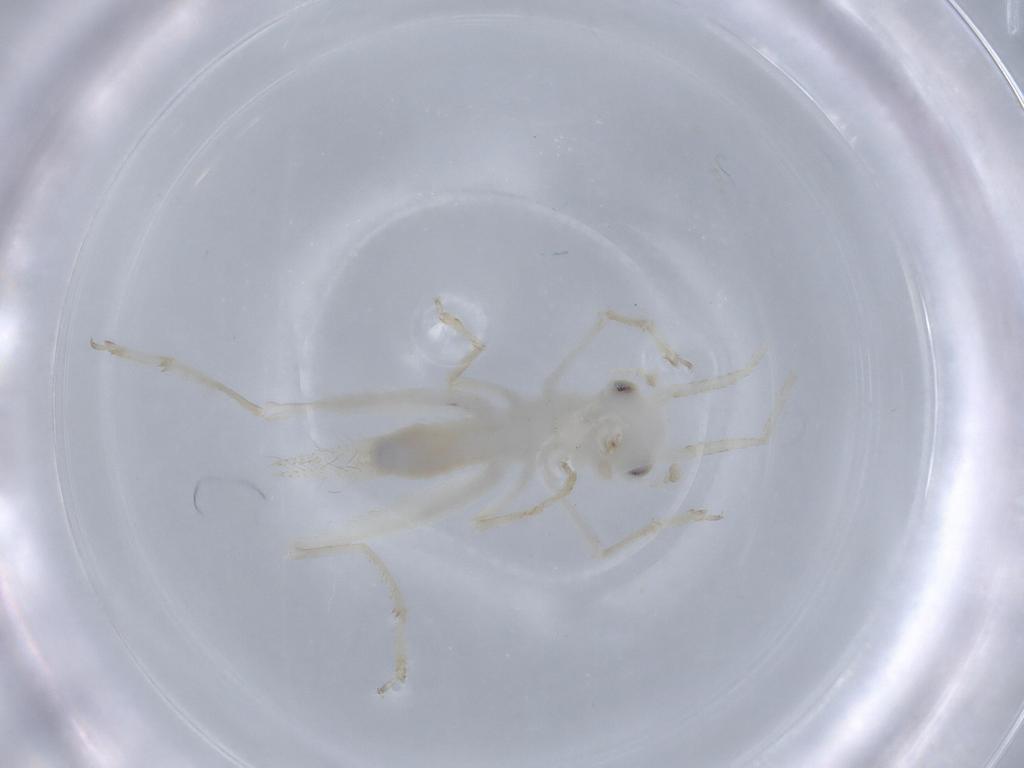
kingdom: Animalia
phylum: Arthropoda
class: Insecta
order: Orthoptera
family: Trigonidiidae
